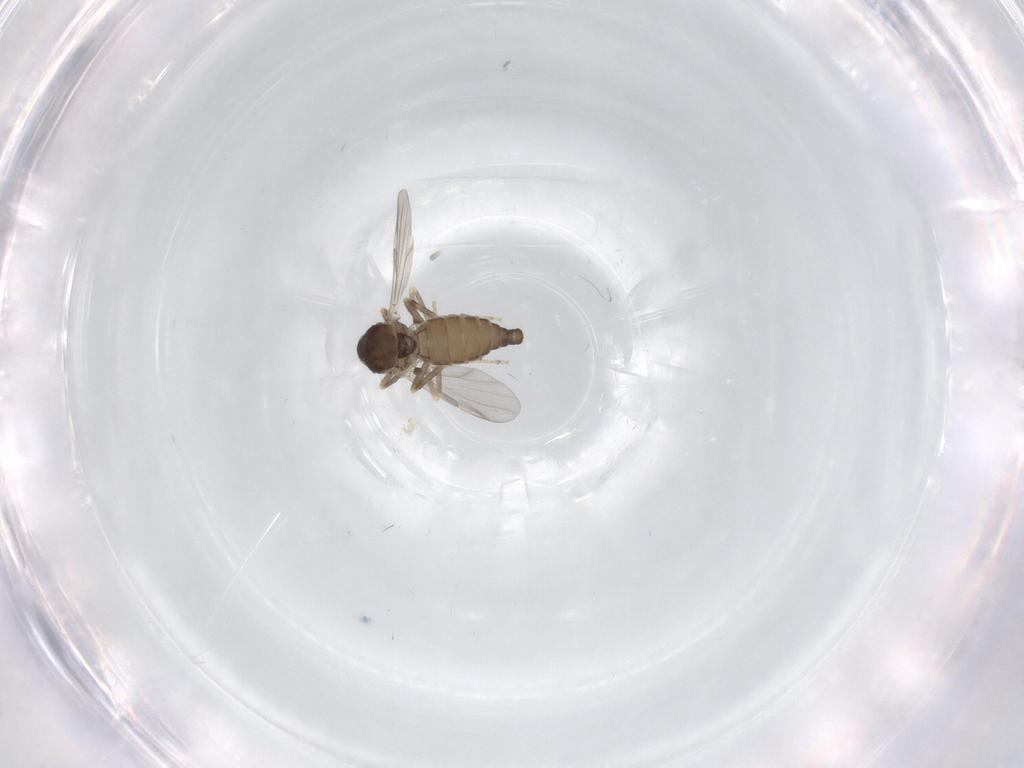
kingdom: Animalia
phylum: Arthropoda
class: Insecta
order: Diptera
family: Ceratopogonidae
